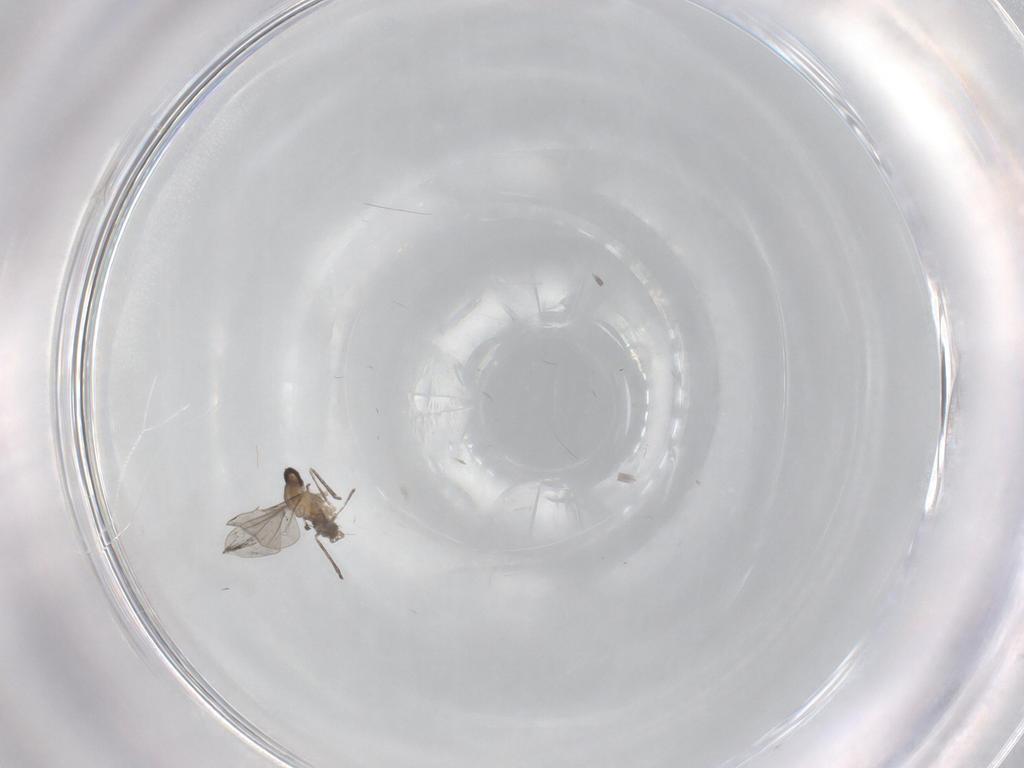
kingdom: Animalia
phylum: Arthropoda
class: Insecta
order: Diptera
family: Cecidomyiidae
